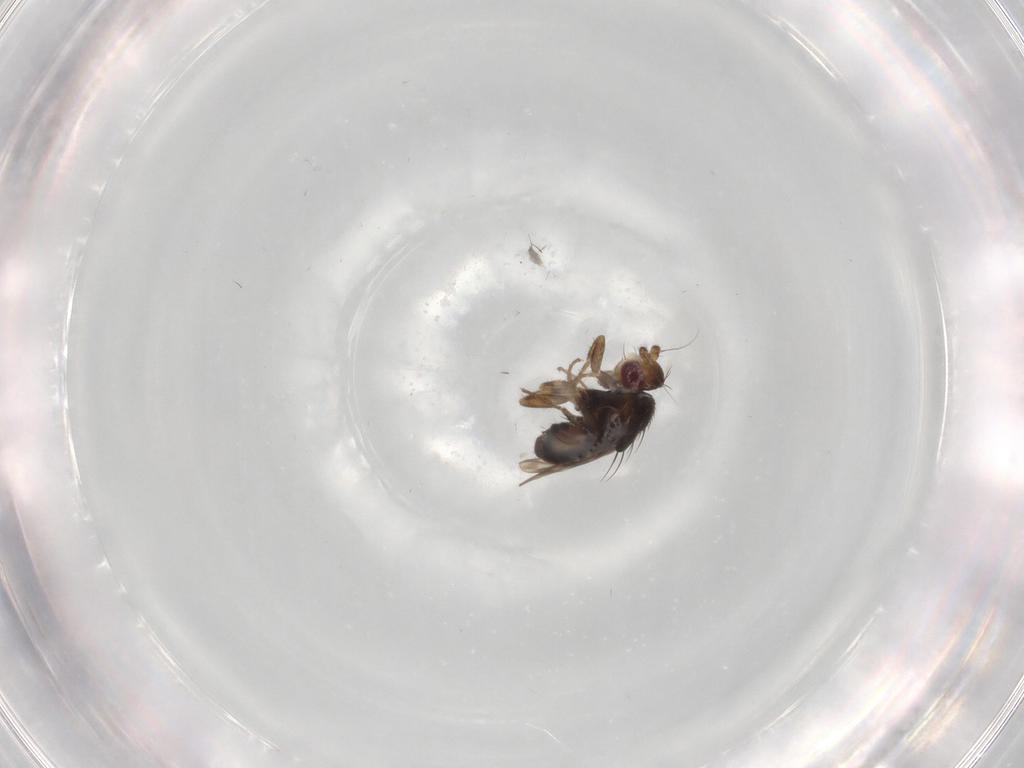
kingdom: Animalia
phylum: Arthropoda
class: Insecta
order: Diptera
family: Sphaeroceridae
